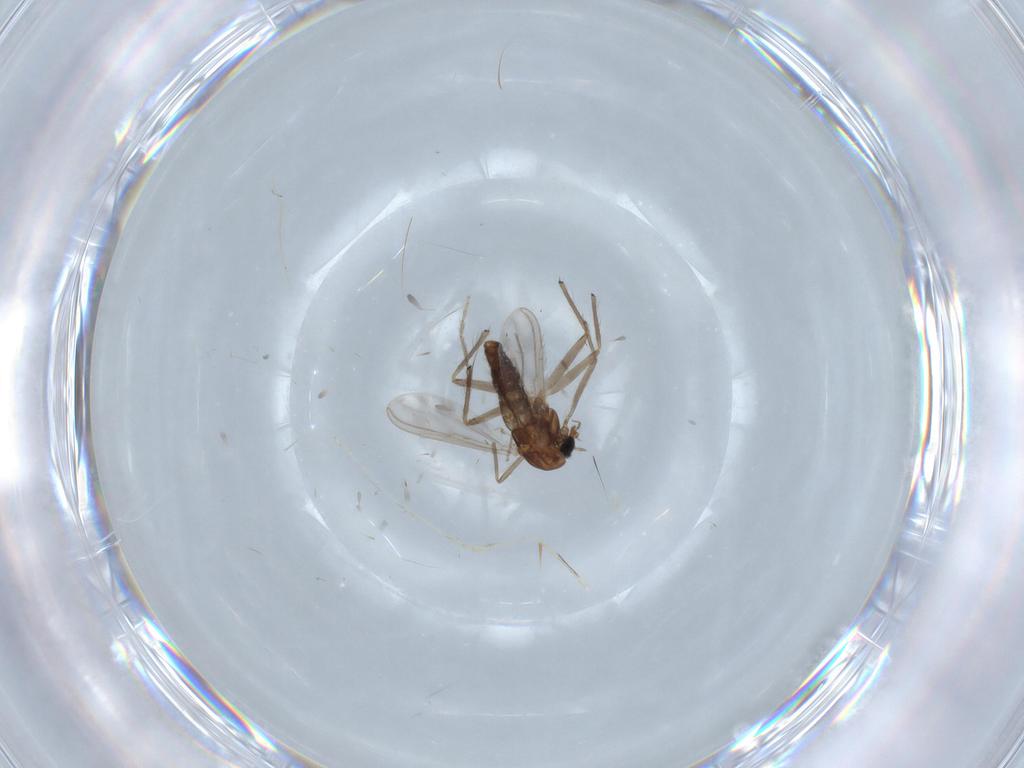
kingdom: Animalia
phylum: Arthropoda
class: Insecta
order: Diptera
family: Chironomidae
